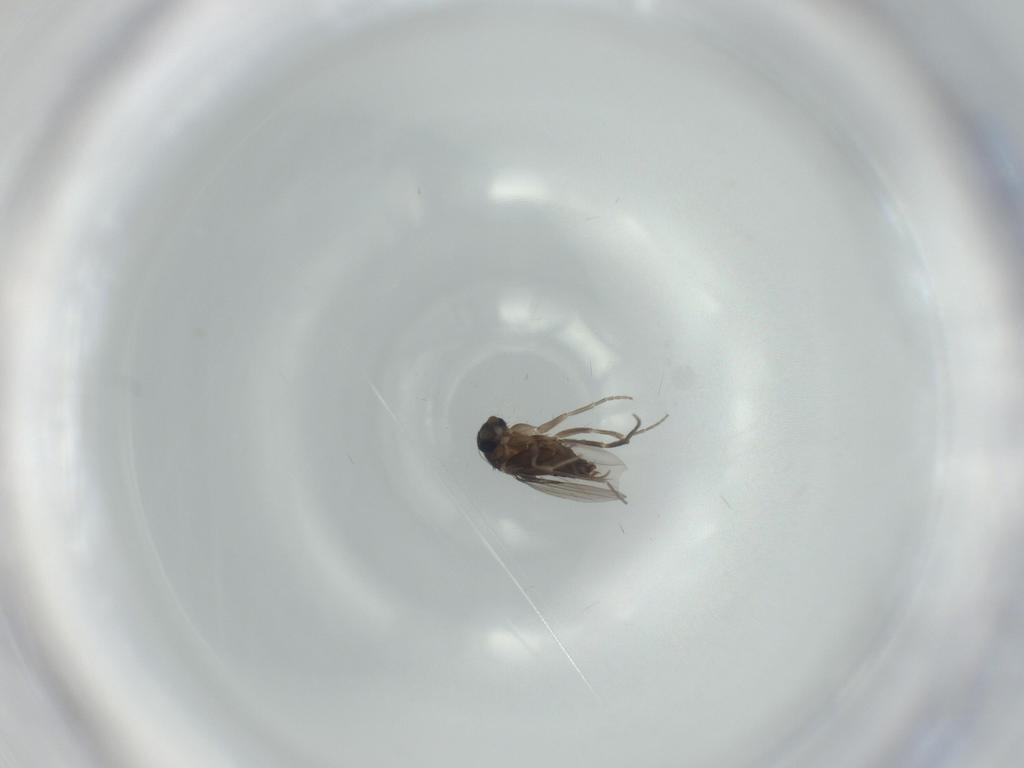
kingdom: Animalia
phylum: Arthropoda
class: Insecta
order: Diptera
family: Phoridae
